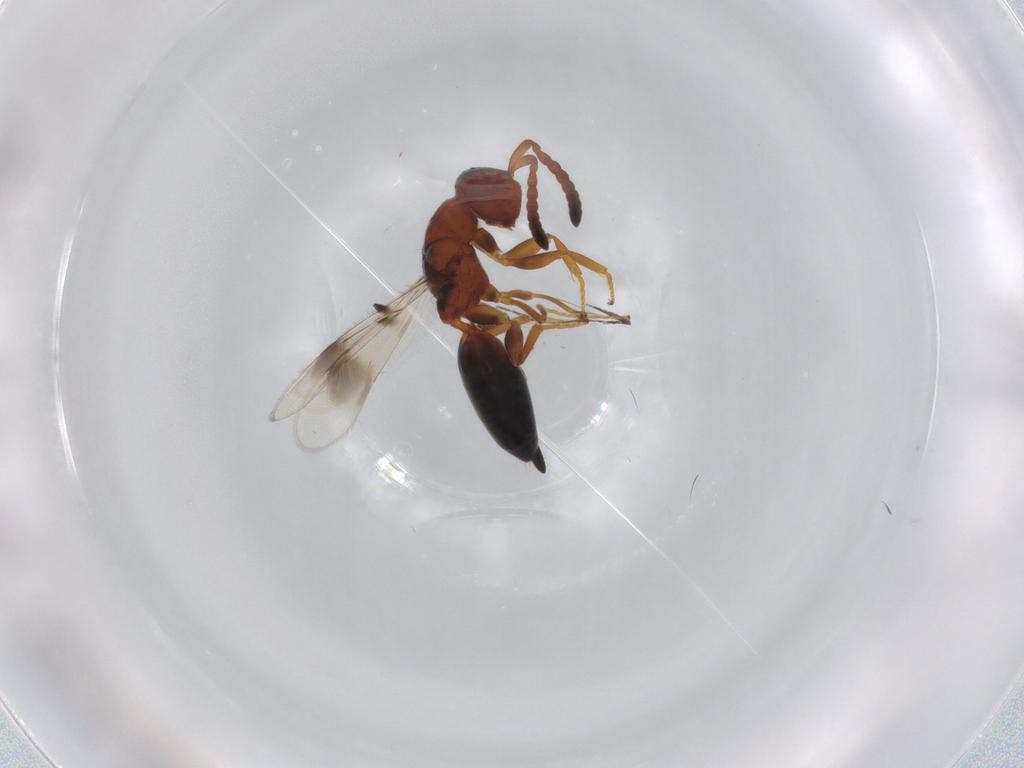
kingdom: Animalia
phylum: Arthropoda
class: Insecta
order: Hymenoptera
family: Cerocephalidae
